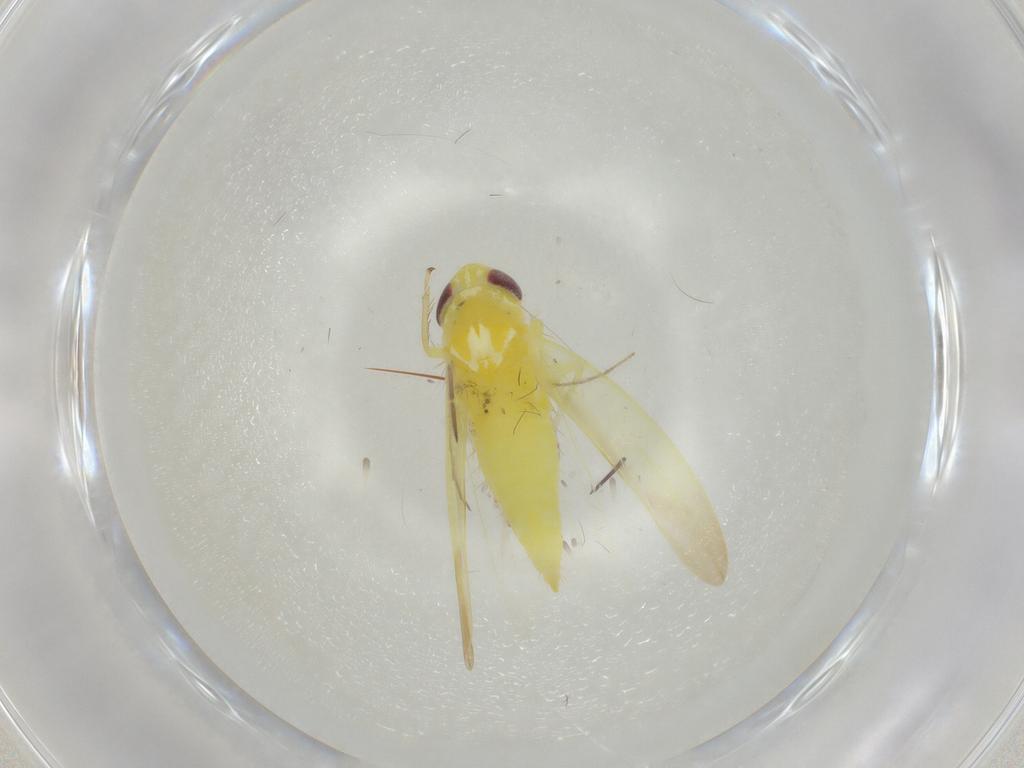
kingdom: Animalia
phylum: Arthropoda
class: Insecta
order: Hemiptera
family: Cicadellidae
